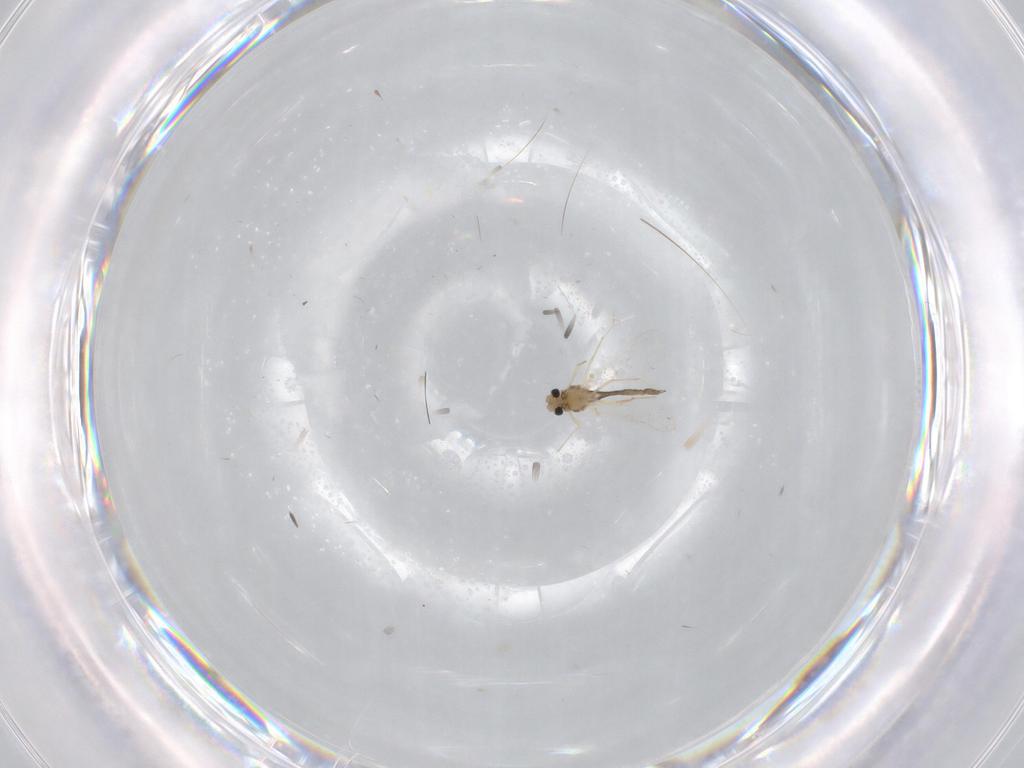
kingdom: Animalia
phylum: Arthropoda
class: Insecta
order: Diptera
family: Chironomidae
